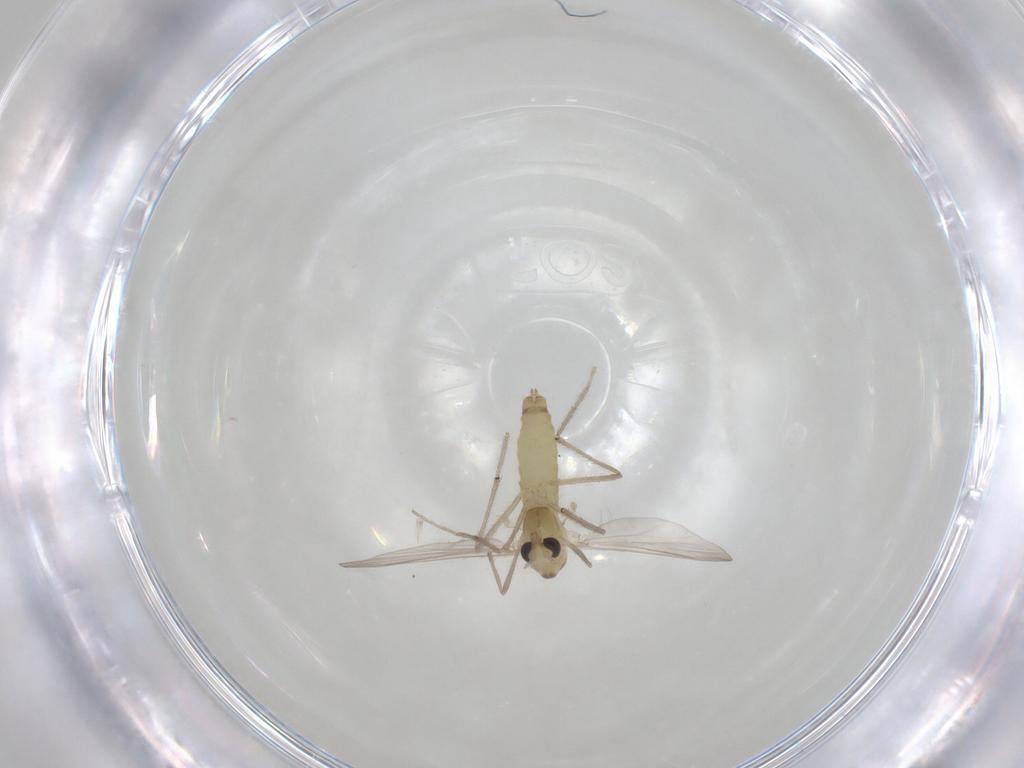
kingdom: Animalia
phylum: Arthropoda
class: Insecta
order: Diptera
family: Chironomidae
